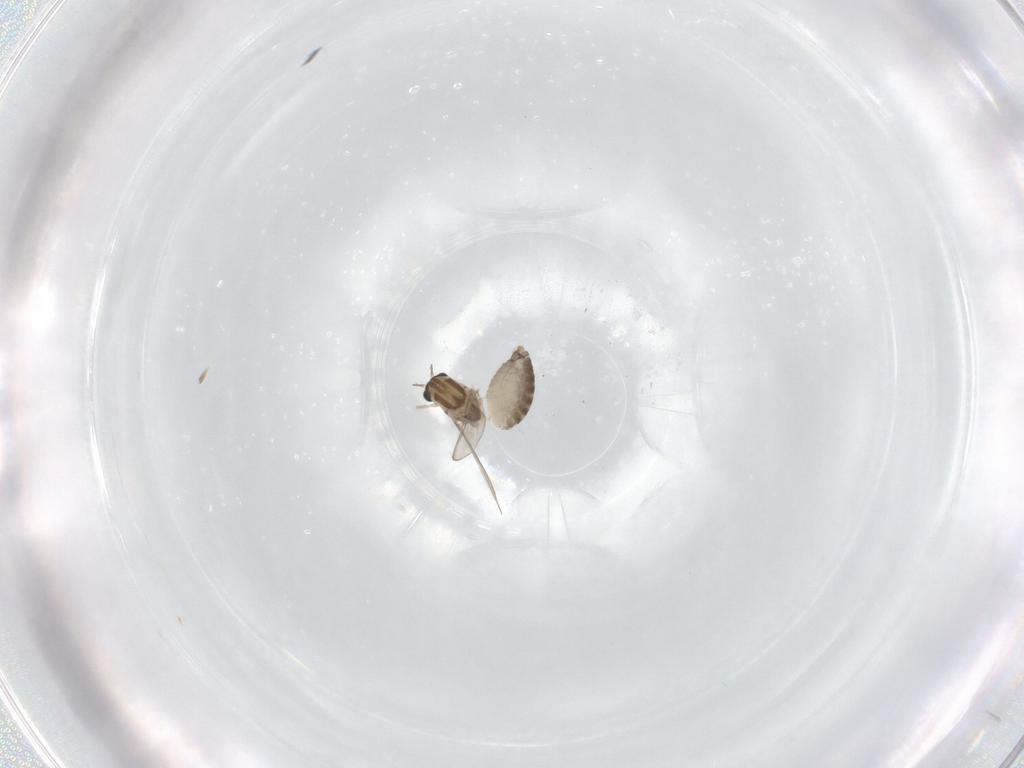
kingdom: Animalia
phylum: Arthropoda
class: Insecta
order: Diptera
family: Chironomidae
